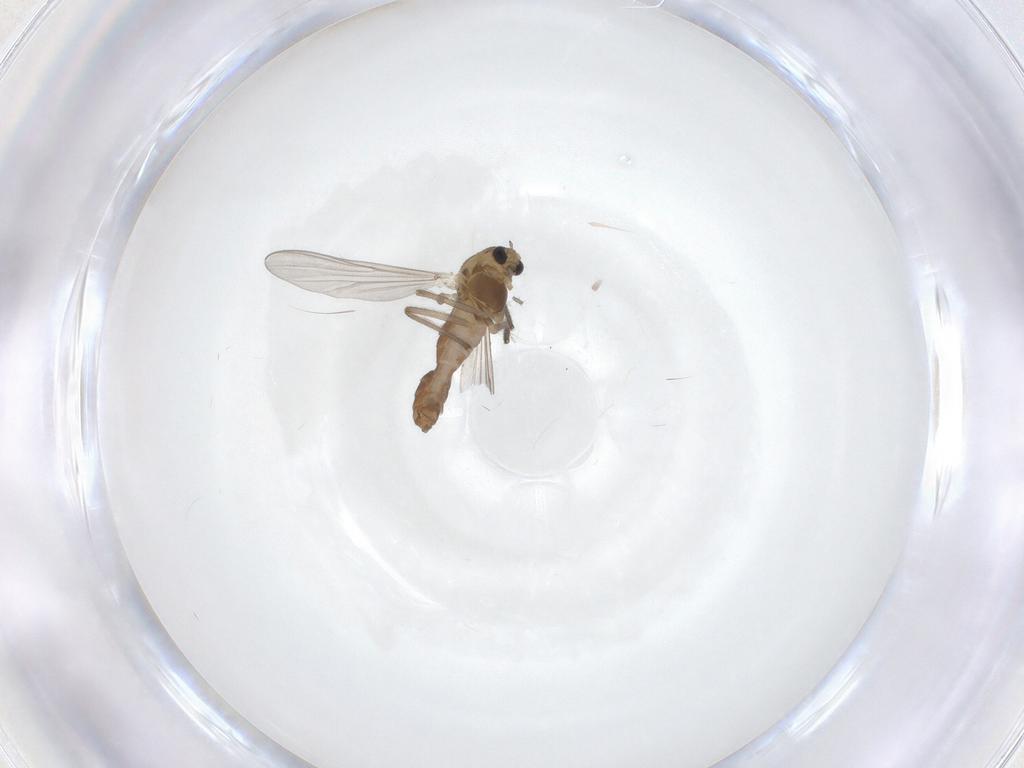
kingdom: Animalia
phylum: Arthropoda
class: Insecta
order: Diptera
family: Chironomidae
